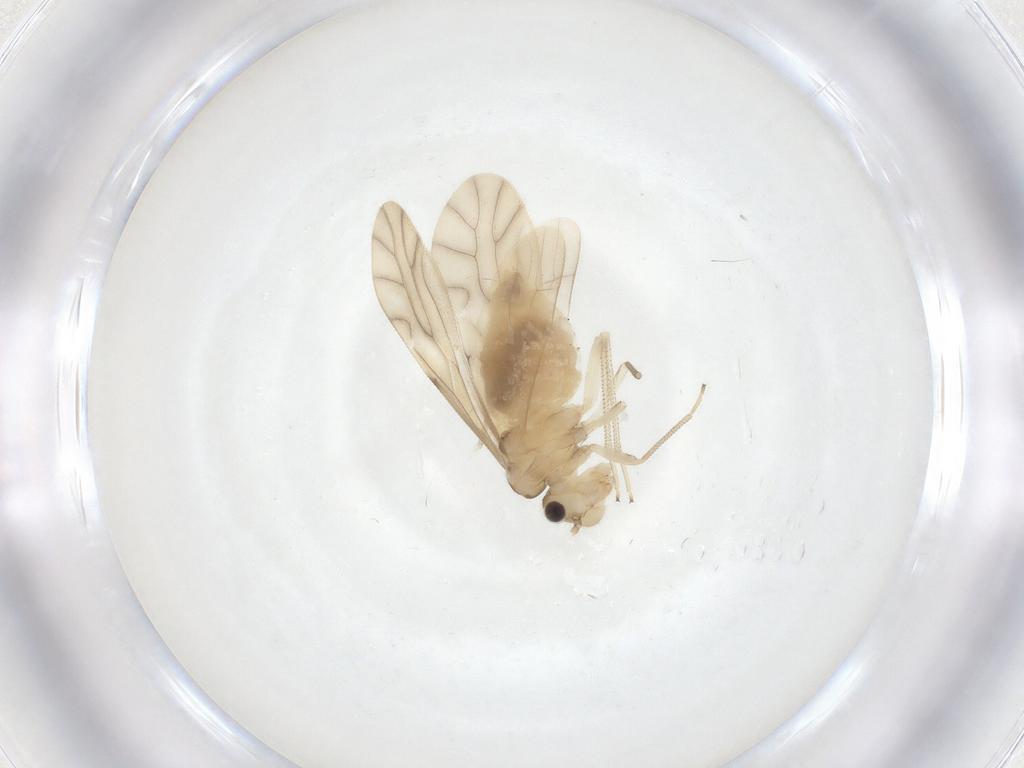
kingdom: Animalia
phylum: Arthropoda
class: Insecta
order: Psocodea
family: Caeciliusidae
